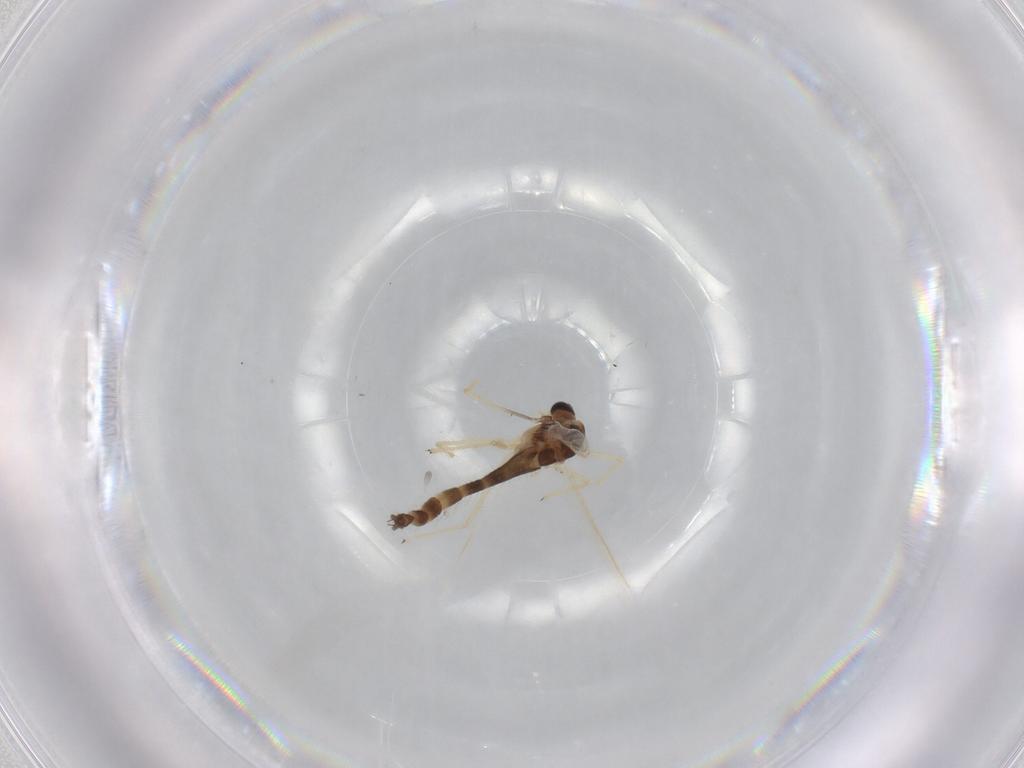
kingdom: Animalia
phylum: Arthropoda
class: Insecta
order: Diptera
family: Chironomidae
